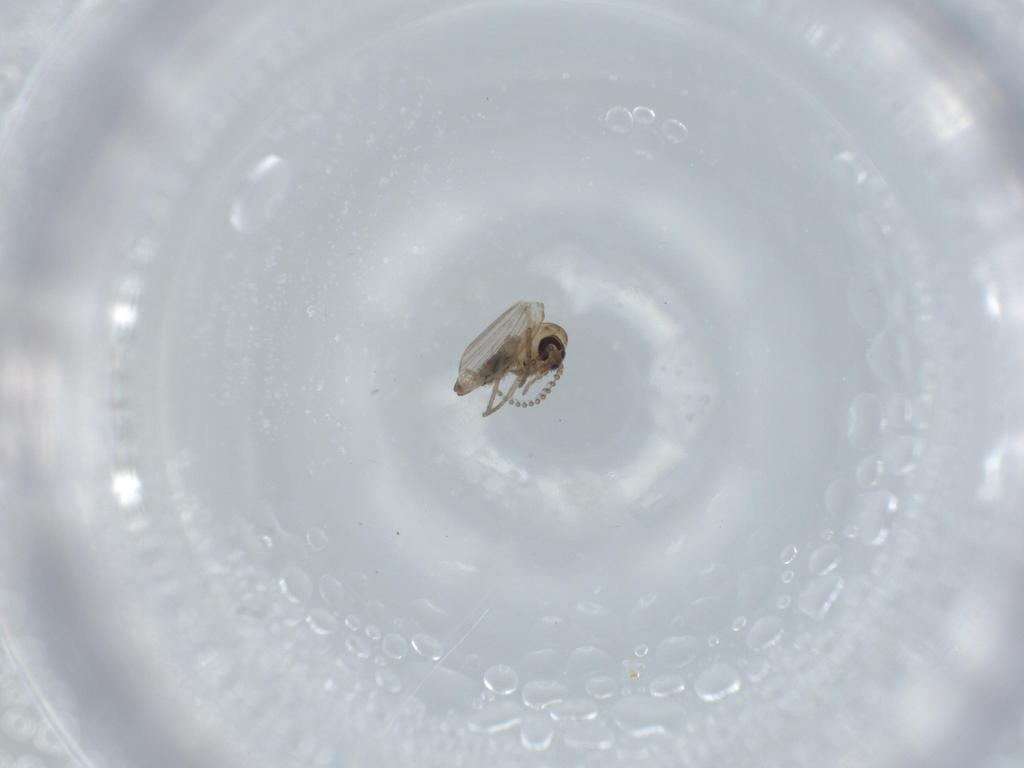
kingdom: Animalia
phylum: Arthropoda
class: Insecta
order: Diptera
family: Psychodidae
